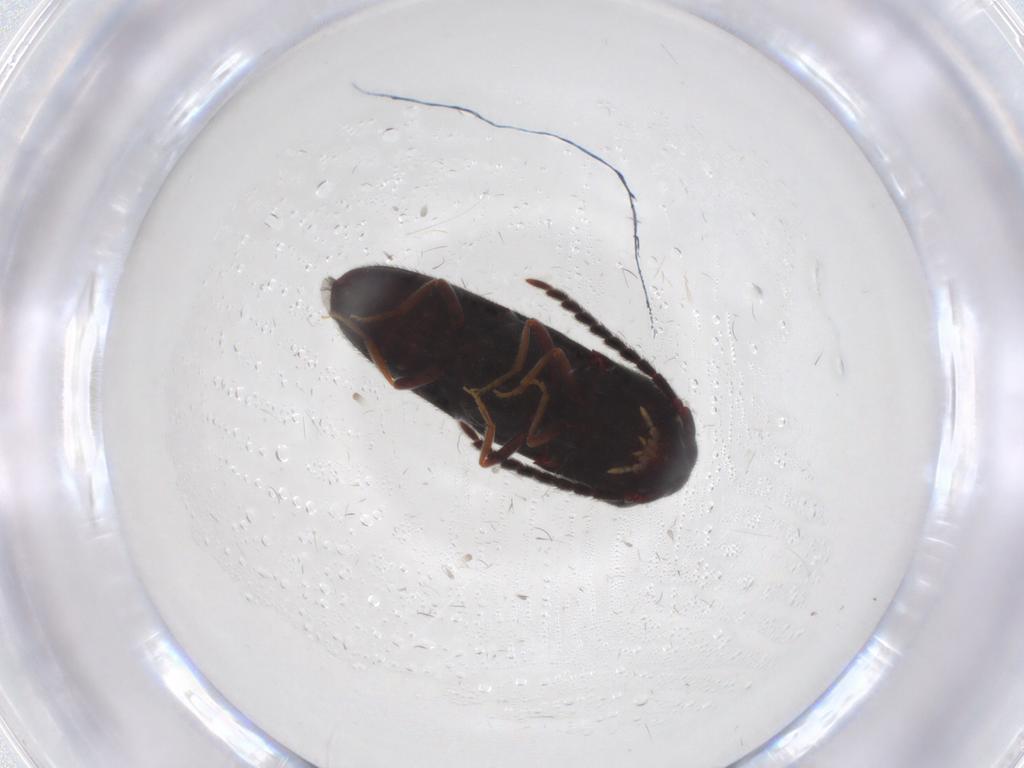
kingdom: Animalia
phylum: Arthropoda
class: Insecta
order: Coleoptera
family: Eucnemidae
